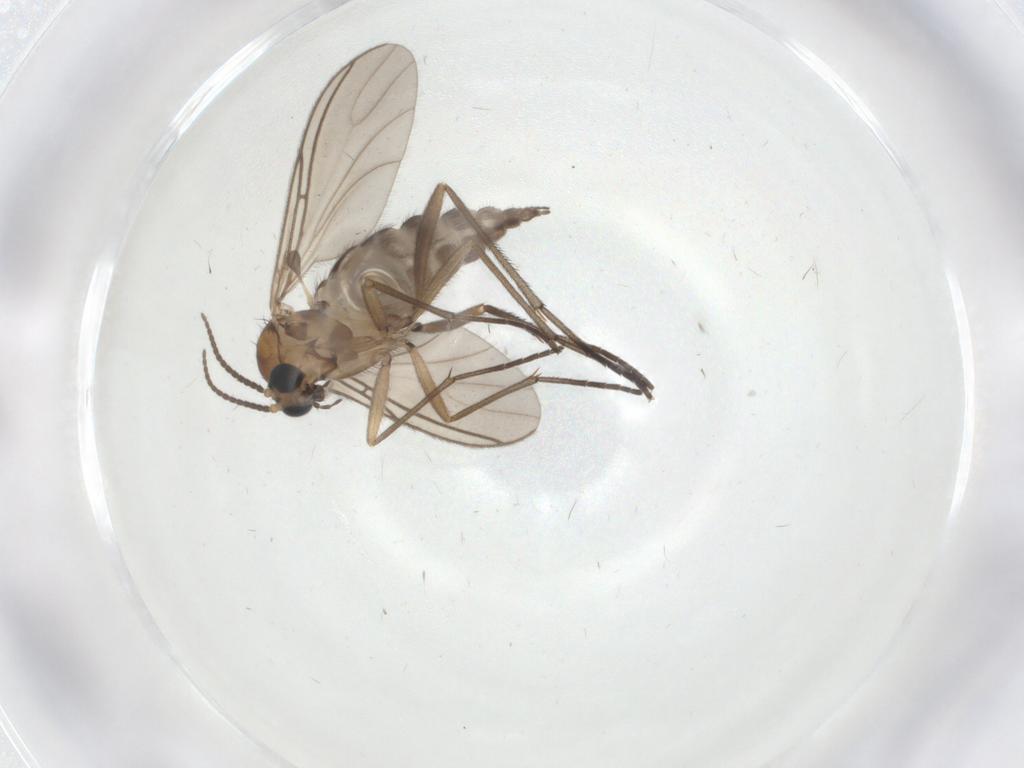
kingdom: Animalia
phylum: Arthropoda
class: Insecta
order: Diptera
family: Sciaridae
